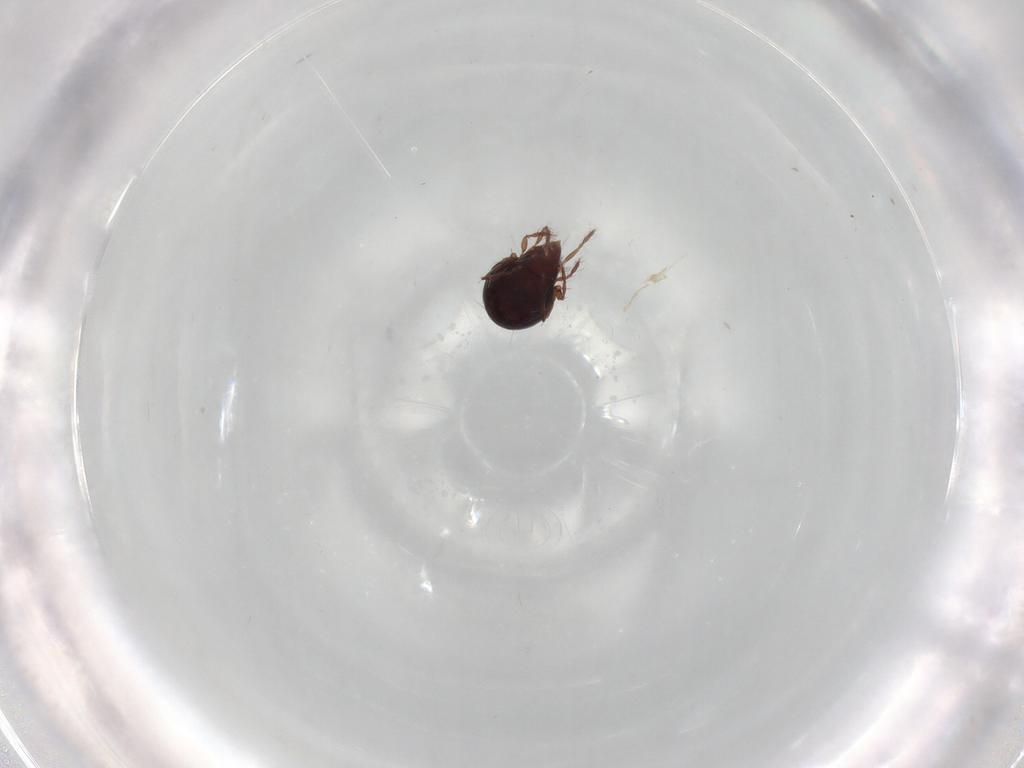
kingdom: Animalia
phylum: Arthropoda
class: Arachnida
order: Sarcoptiformes
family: Ceratoppiidae
